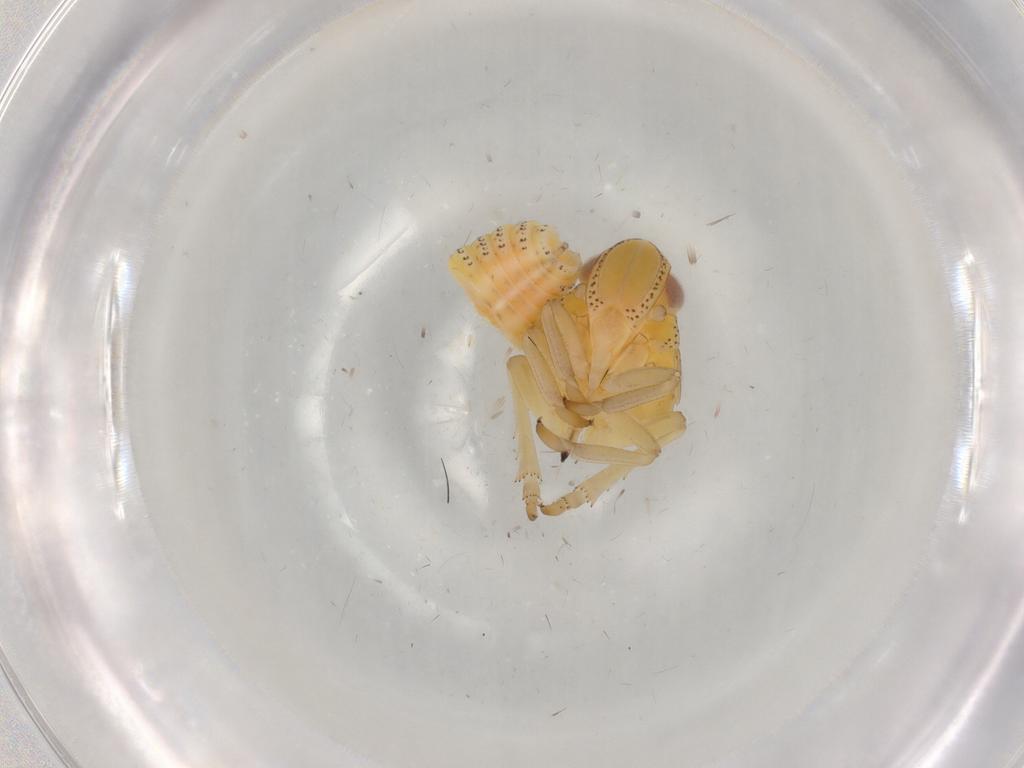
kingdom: Animalia
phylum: Arthropoda
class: Insecta
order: Hemiptera
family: Tropiduchidae
